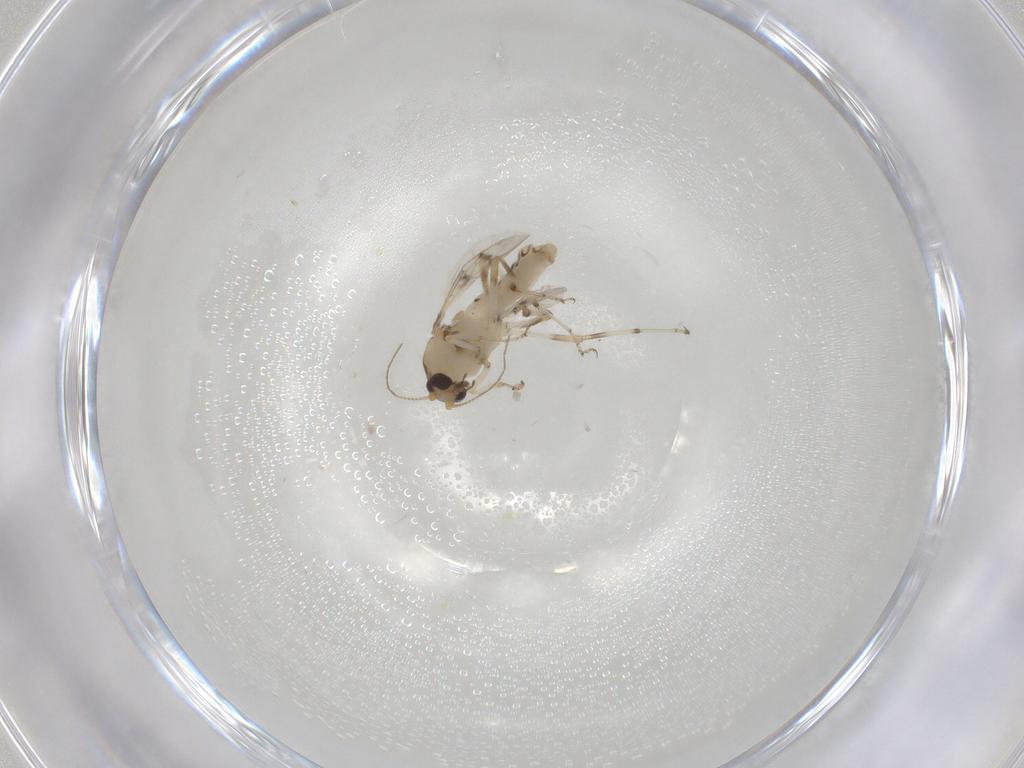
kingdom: Animalia
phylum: Arthropoda
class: Insecta
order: Diptera
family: Ceratopogonidae
